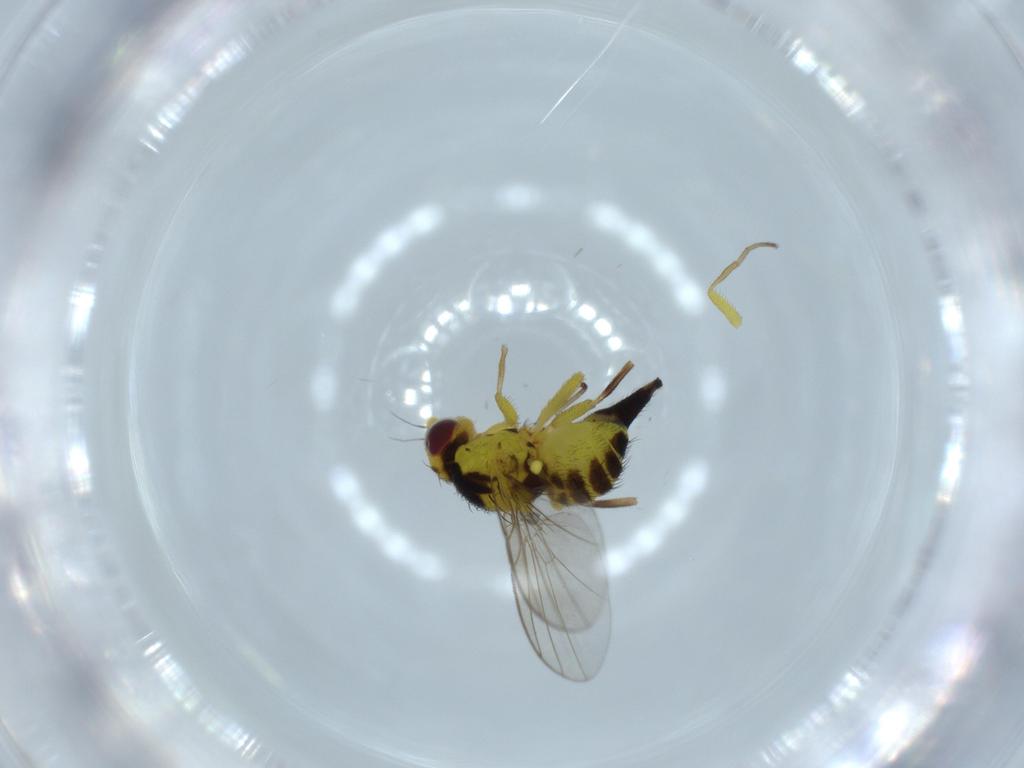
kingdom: Animalia
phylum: Arthropoda
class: Insecta
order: Diptera
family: Agromyzidae
